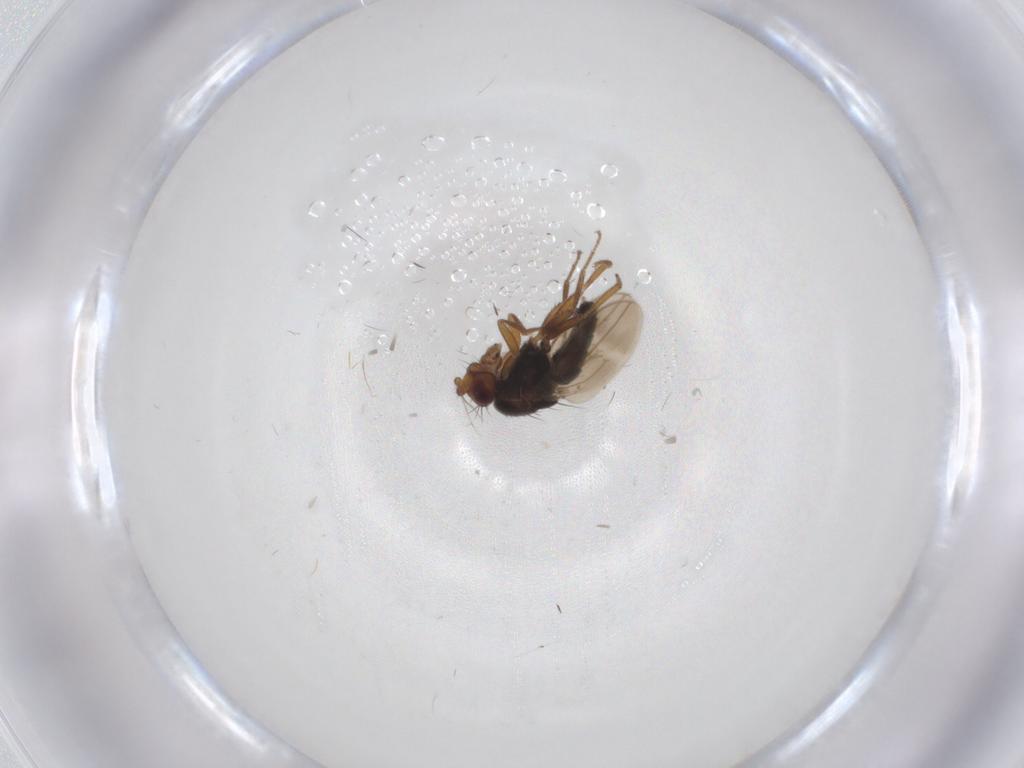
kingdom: Animalia
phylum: Arthropoda
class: Insecta
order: Diptera
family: Sphaeroceridae
